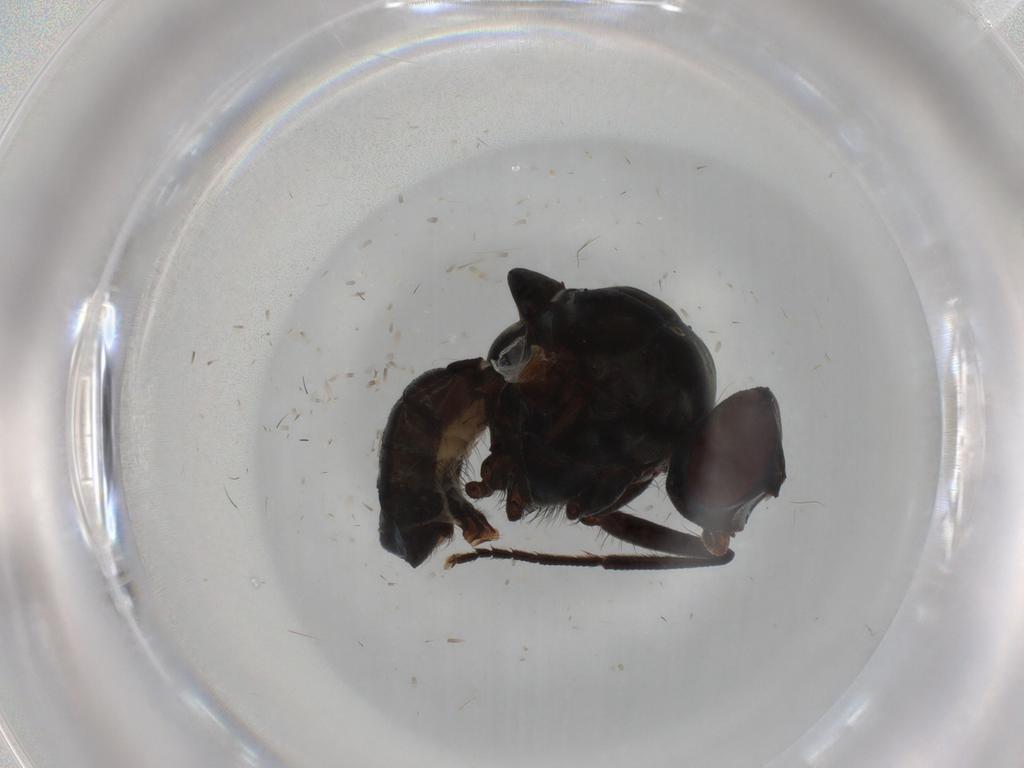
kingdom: Animalia
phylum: Arthropoda
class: Insecta
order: Diptera
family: Anthomyiidae
